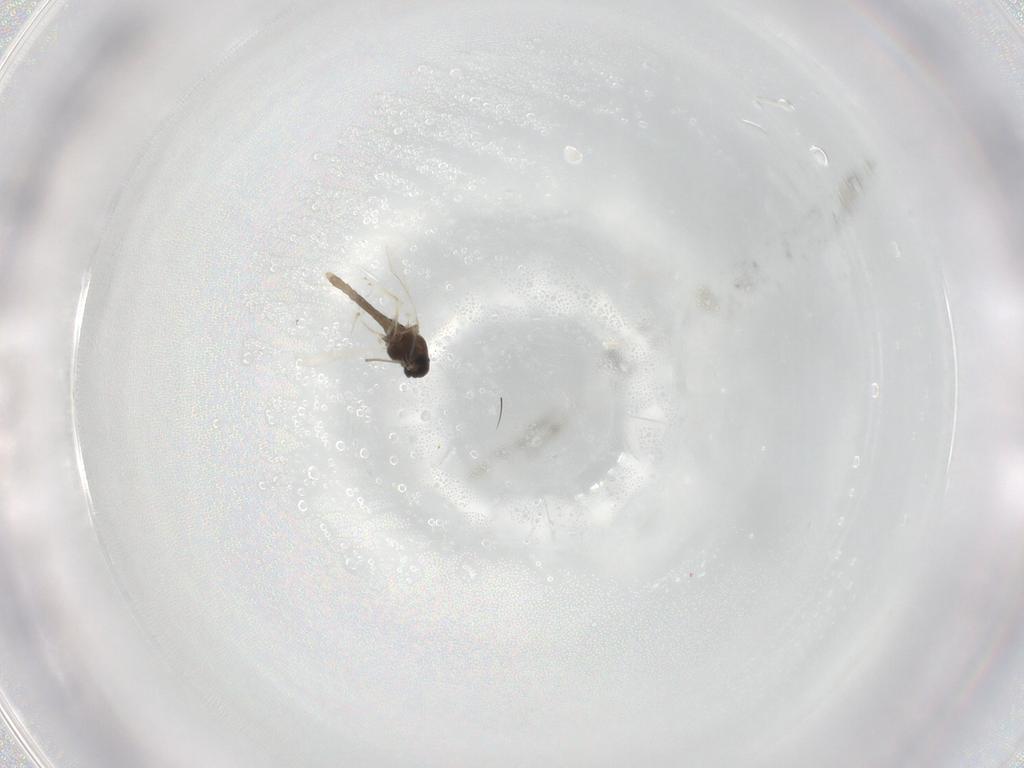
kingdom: Animalia
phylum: Arthropoda
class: Insecta
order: Diptera
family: Chironomidae
